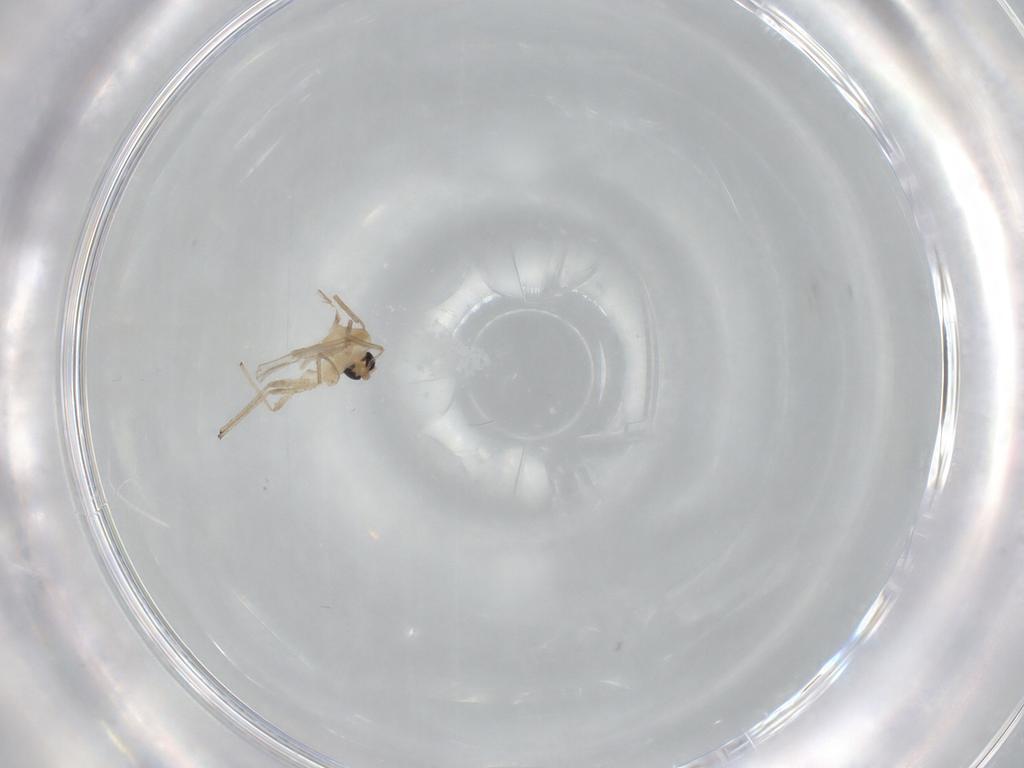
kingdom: Animalia
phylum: Arthropoda
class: Insecta
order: Diptera
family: Chironomidae
